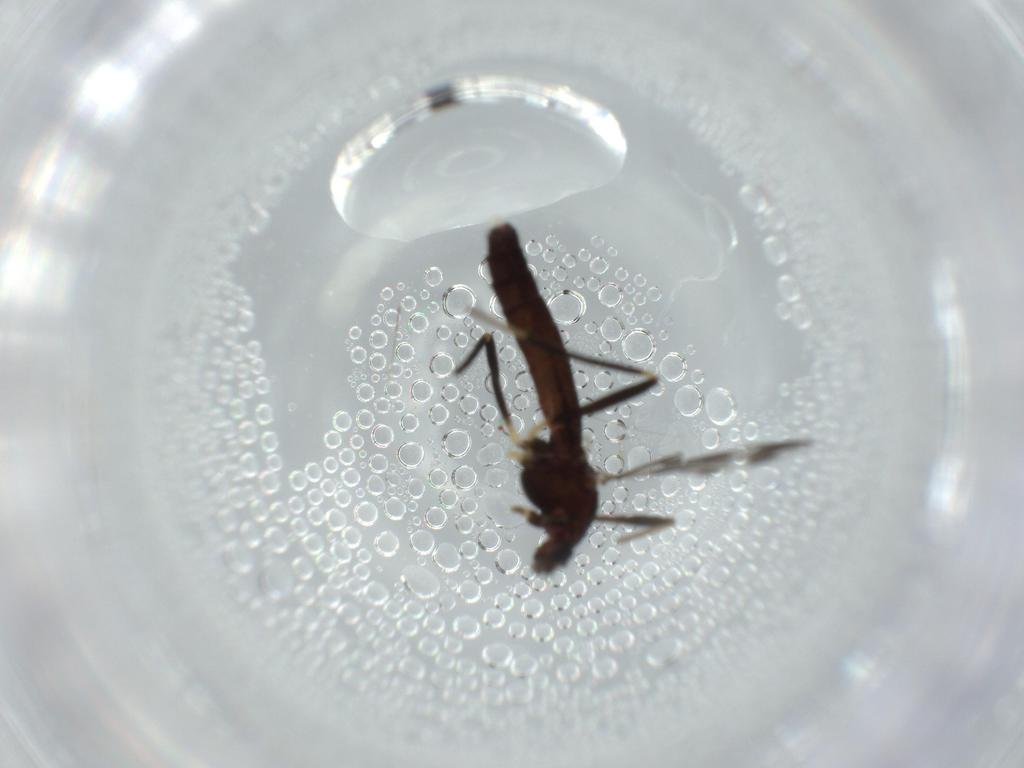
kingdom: Animalia
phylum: Arthropoda
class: Insecta
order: Diptera
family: Chironomidae
